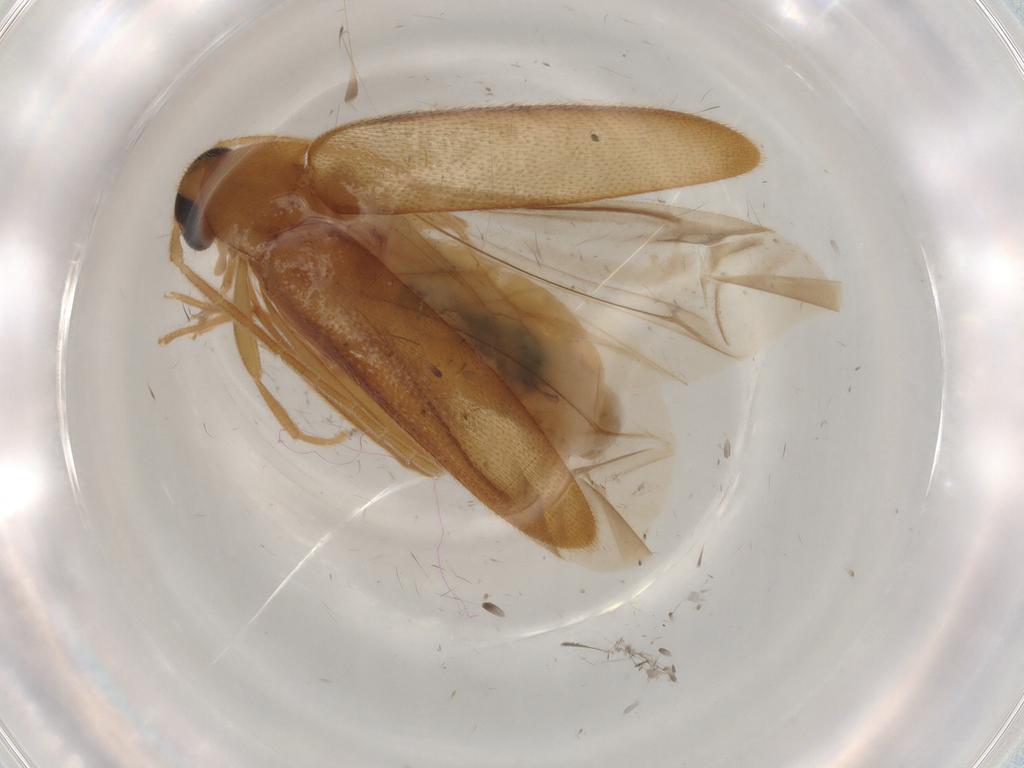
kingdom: Animalia
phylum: Arthropoda
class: Insecta
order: Coleoptera
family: Scraptiidae
